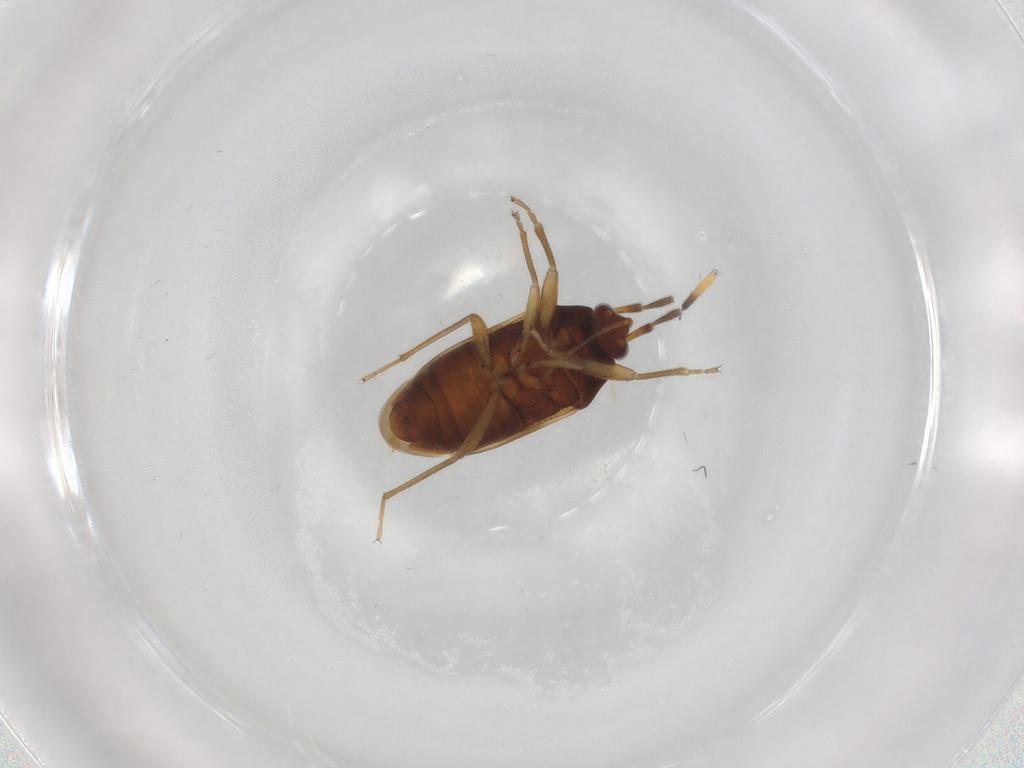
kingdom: Animalia
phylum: Arthropoda
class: Insecta
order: Hemiptera
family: Rhyparochromidae
